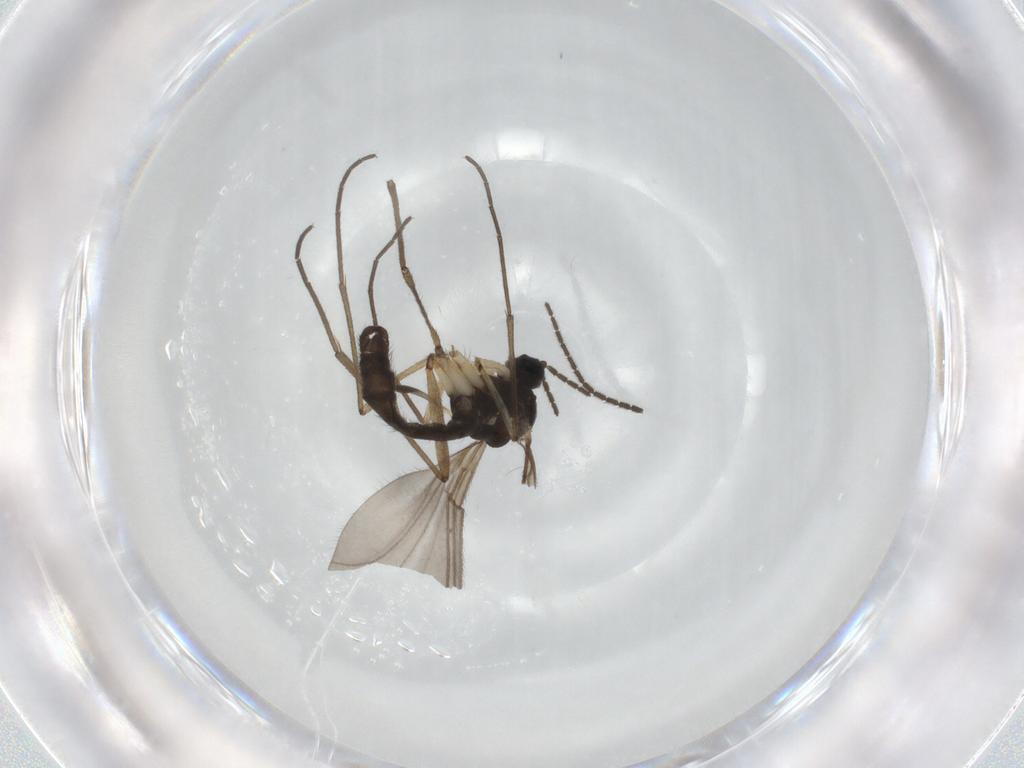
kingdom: Animalia
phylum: Arthropoda
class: Insecta
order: Diptera
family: Sciaridae
